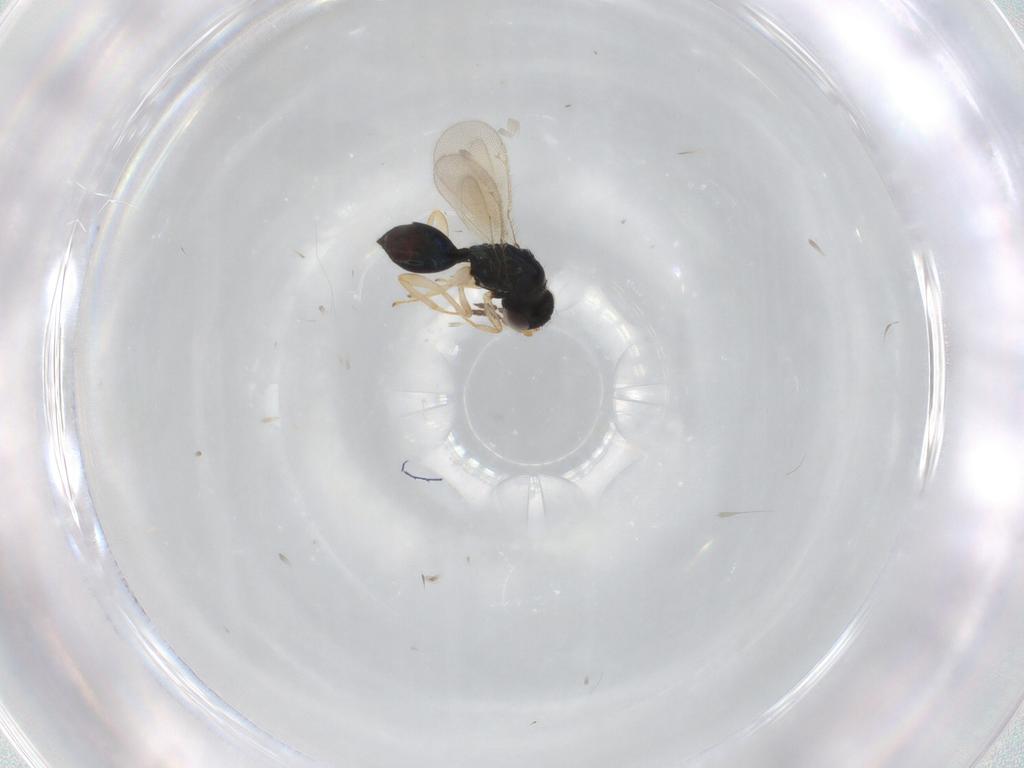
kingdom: Animalia
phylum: Arthropoda
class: Insecta
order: Hymenoptera
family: Eulophidae
